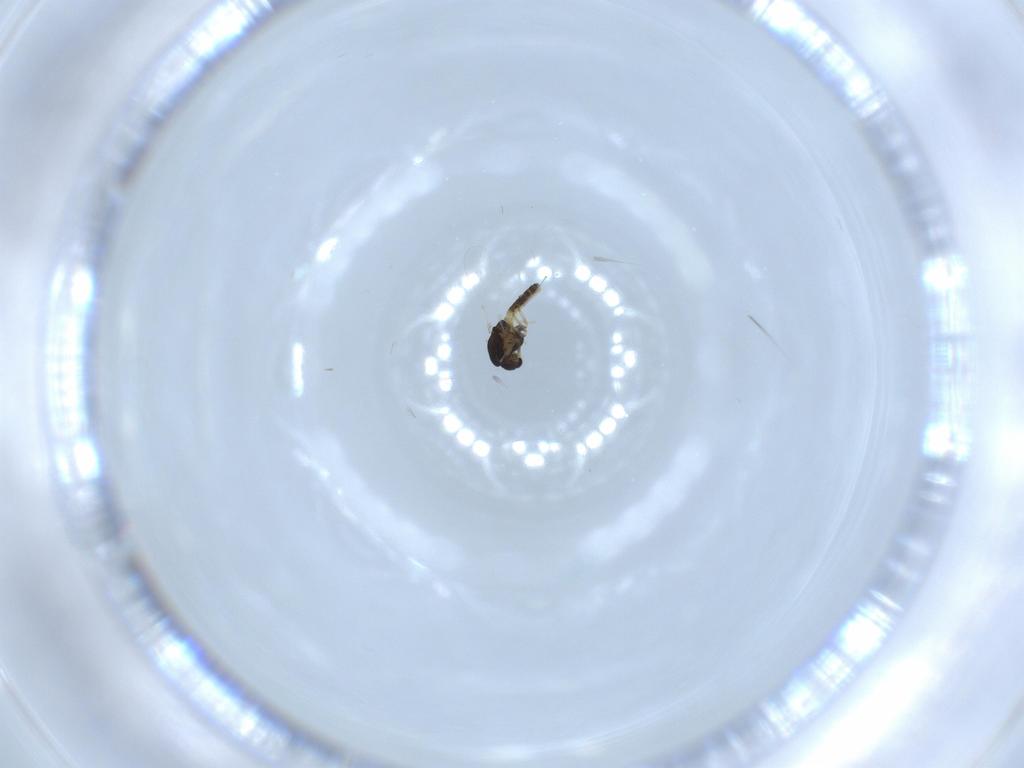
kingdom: Animalia
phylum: Arthropoda
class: Insecta
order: Diptera
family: Chironomidae
